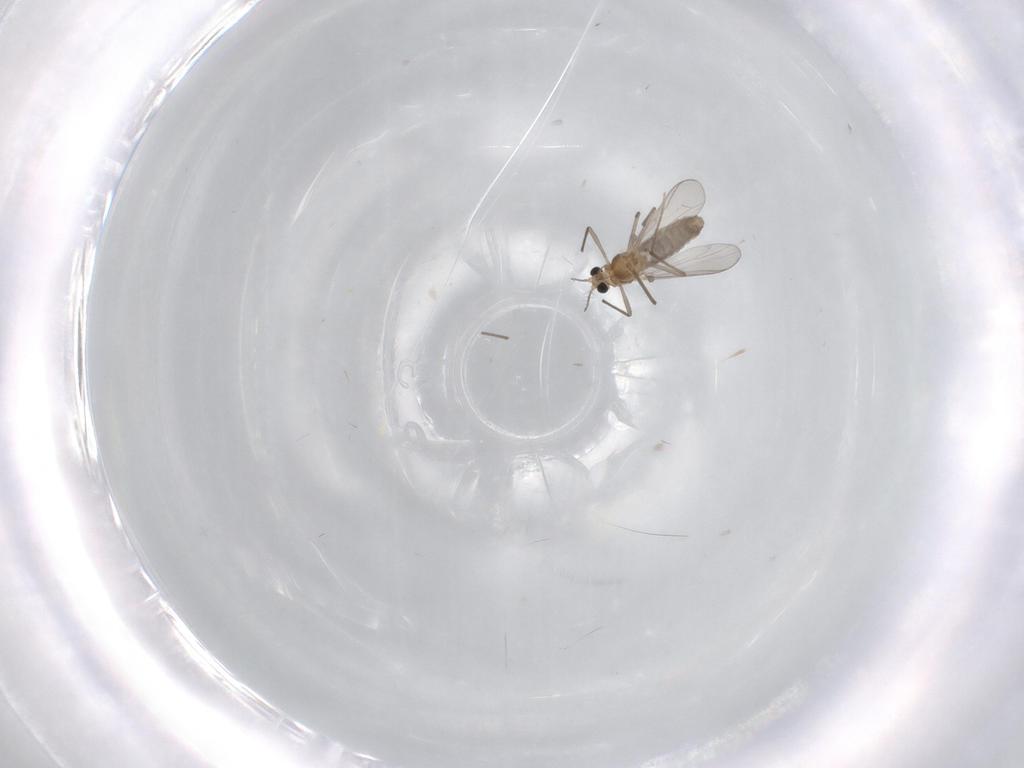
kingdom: Animalia
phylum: Arthropoda
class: Insecta
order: Diptera
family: Chironomidae
